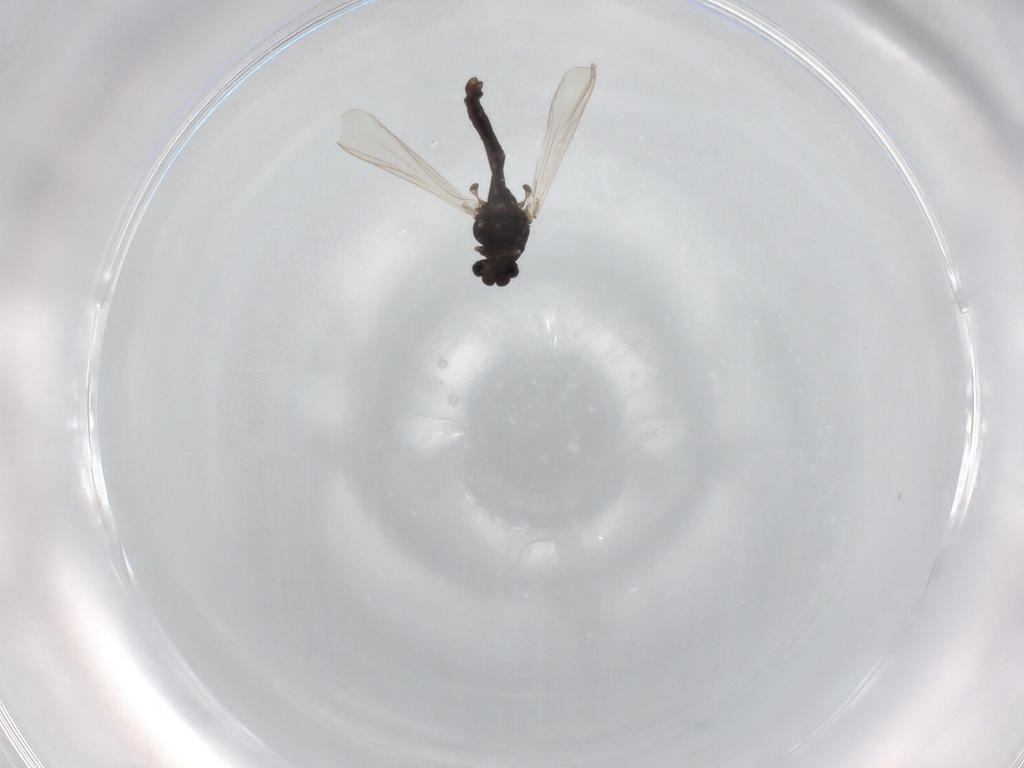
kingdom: Animalia
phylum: Arthropoda
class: Insecta
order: Diptera
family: Chironomidae
